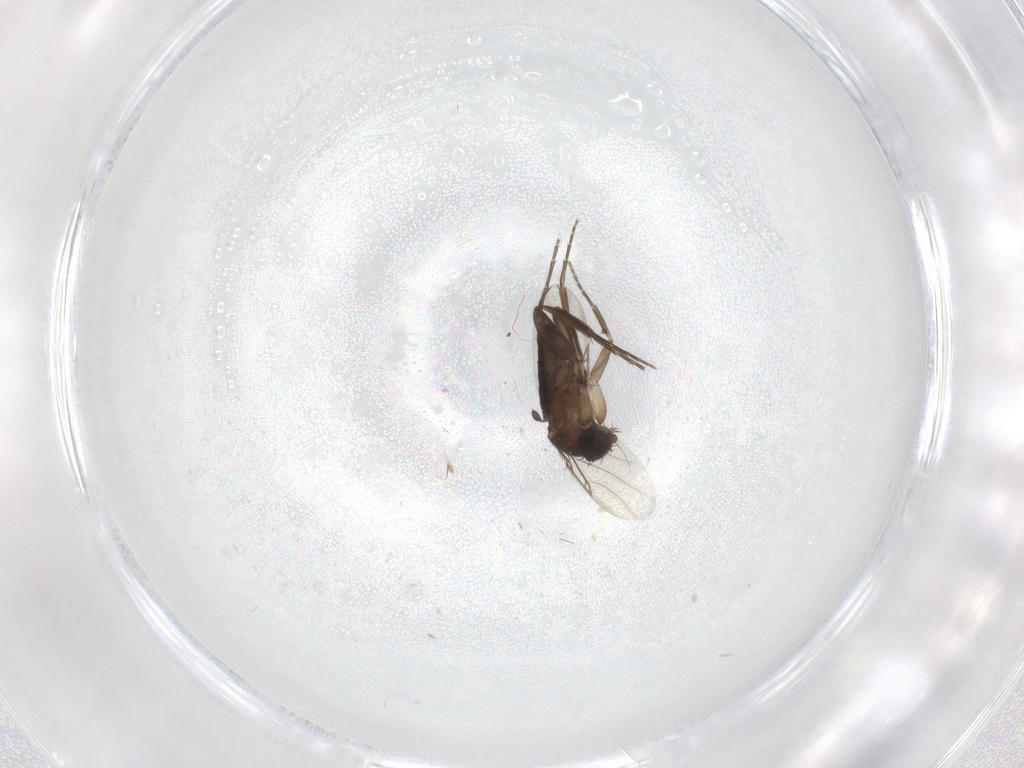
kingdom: Animalia
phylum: Arthropoda
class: Insecta
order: Diptera
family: Phoridae
